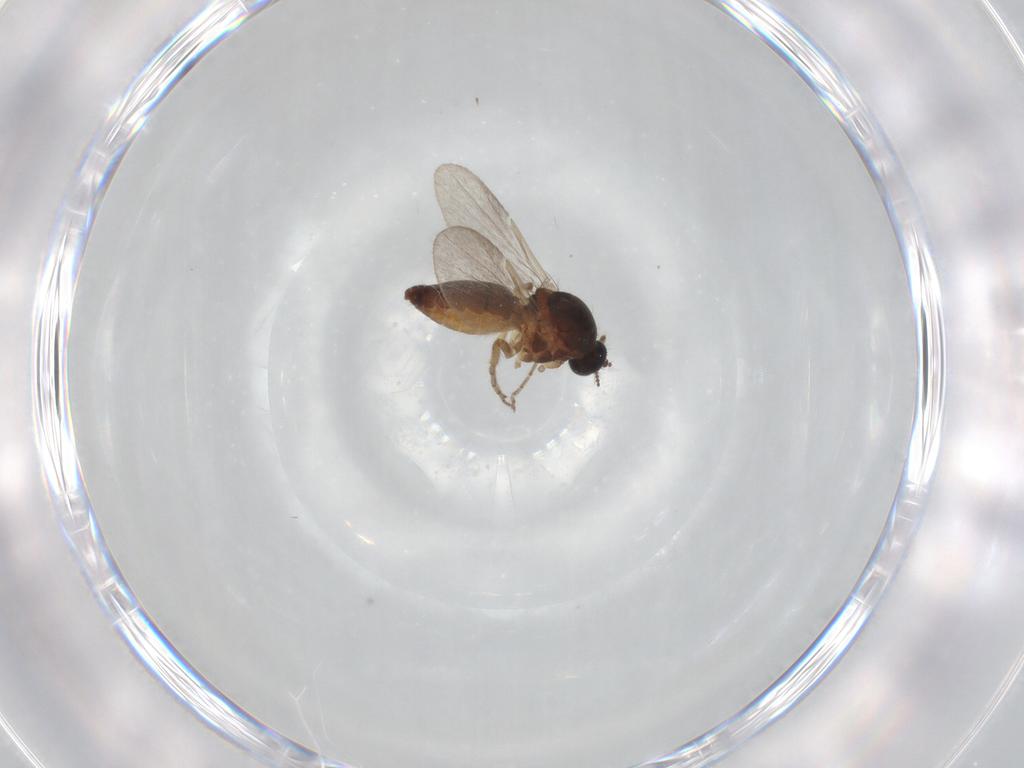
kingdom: Animalia
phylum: Arthropoda
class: Insecta
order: Diptera
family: Ceratopogonidae
